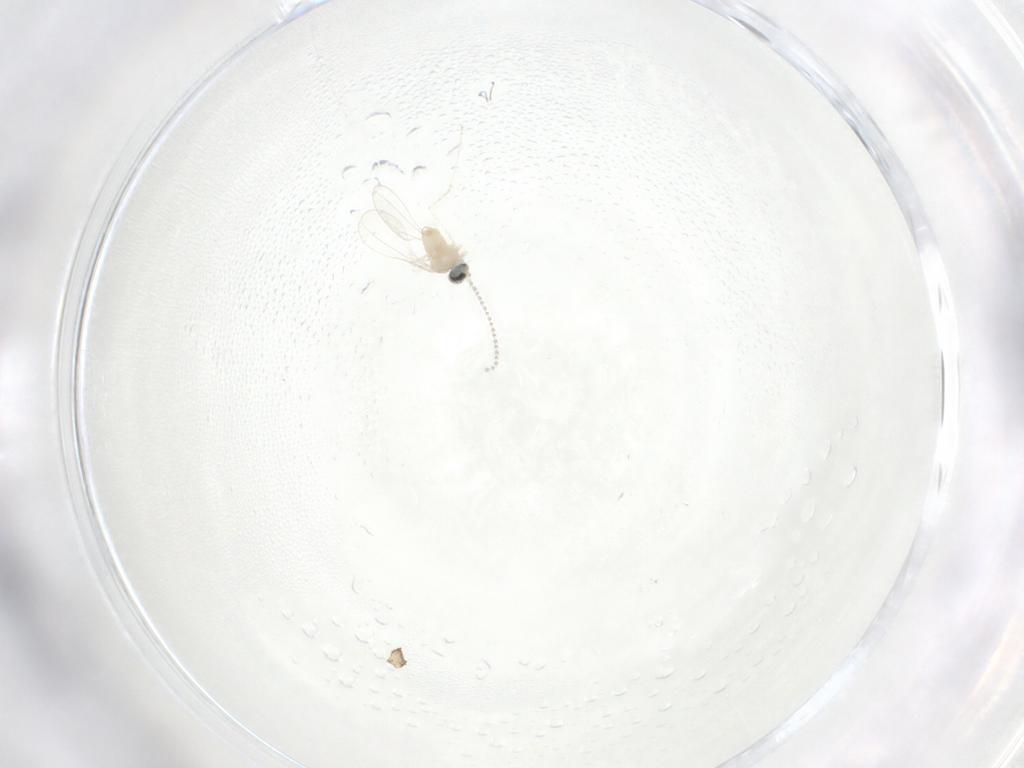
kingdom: Animalia
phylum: Arthropoda
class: Insecta
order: Diptera
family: Cecidomyiidae
